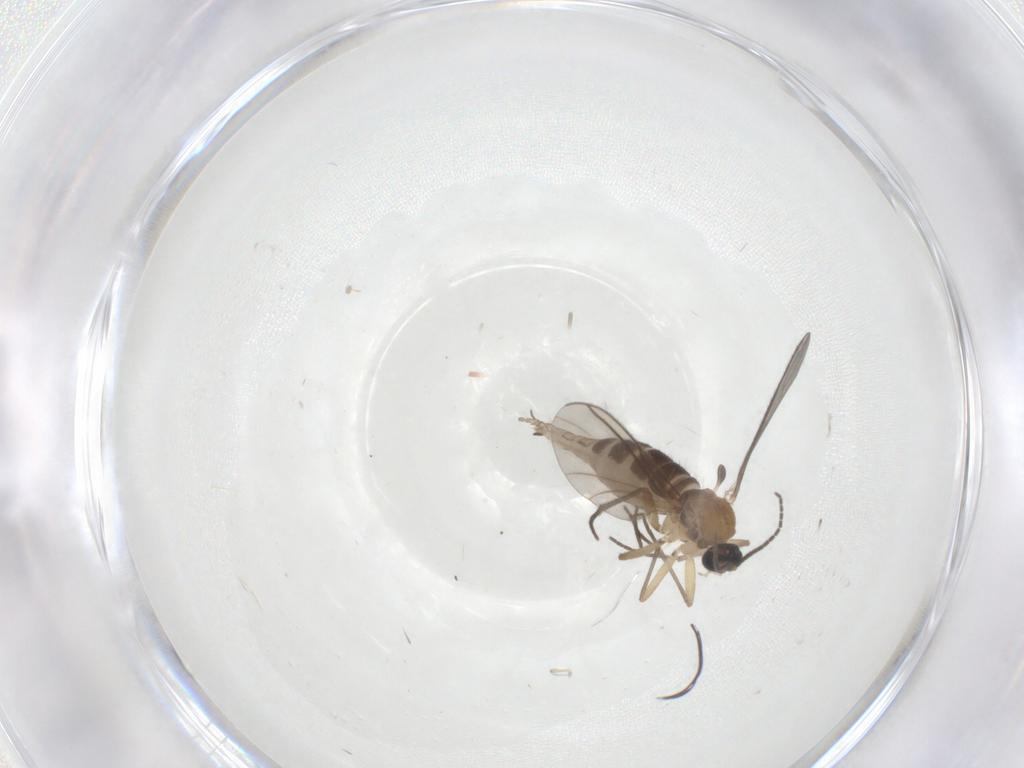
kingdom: Animalia
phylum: Arthropoda
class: Insecta
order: Diptera
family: Sciaridae
